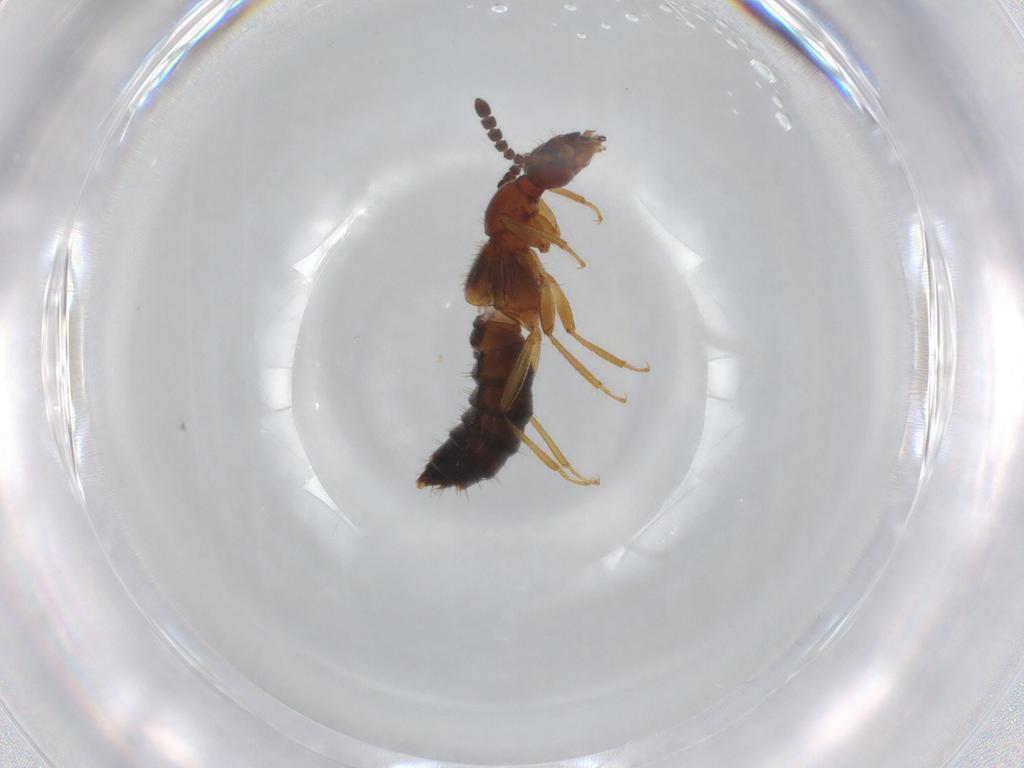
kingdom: Animalia
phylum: Arthropoda
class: Insecta
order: Coleoptera
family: Staphylinidae
